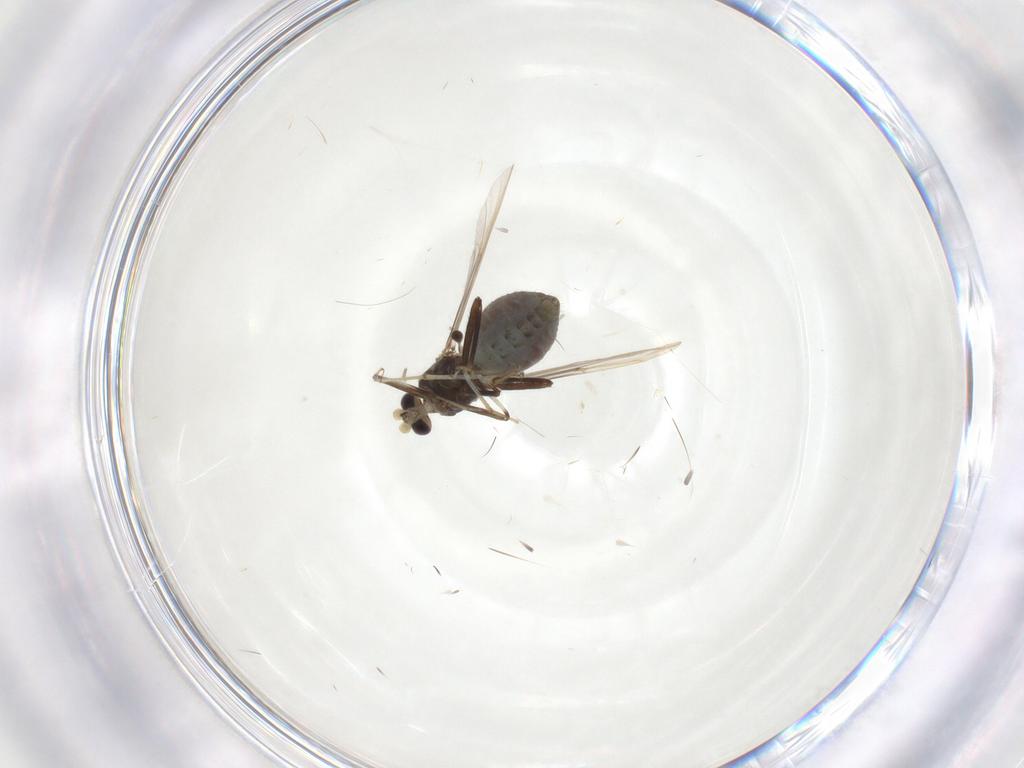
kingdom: Animalia
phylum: Arthropoda
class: Insecta
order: Diptera
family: Ceratopogonidae
